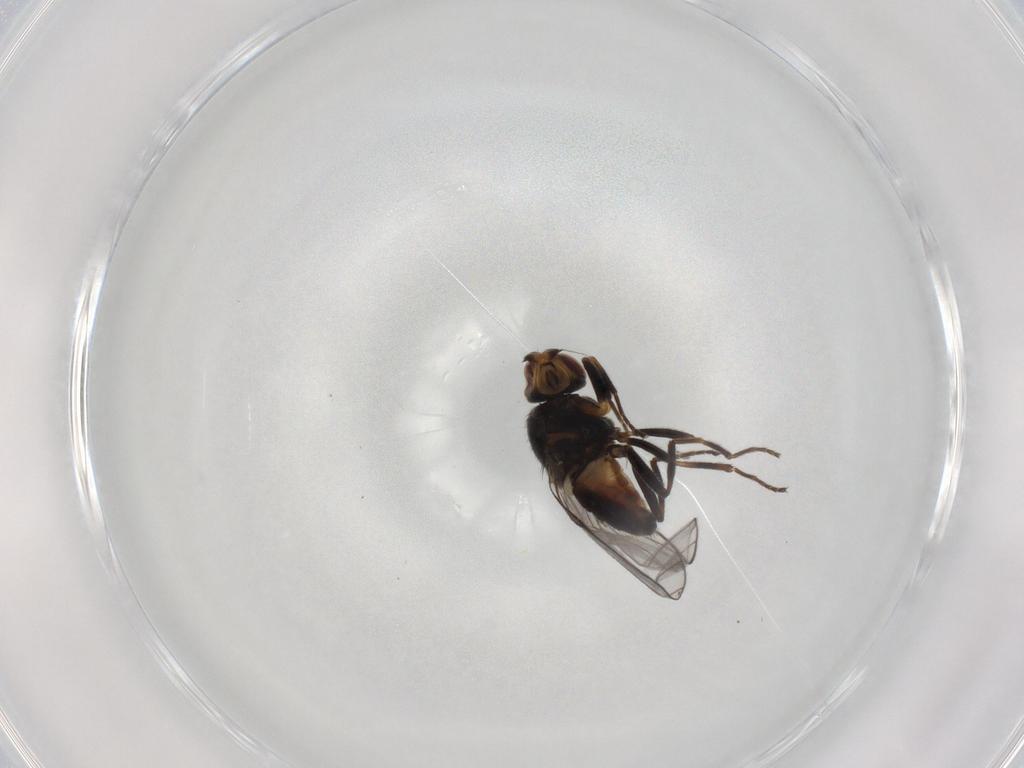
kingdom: Animalia
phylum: Arthropoda
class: Insecta
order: Diptera
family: Chloropidae
